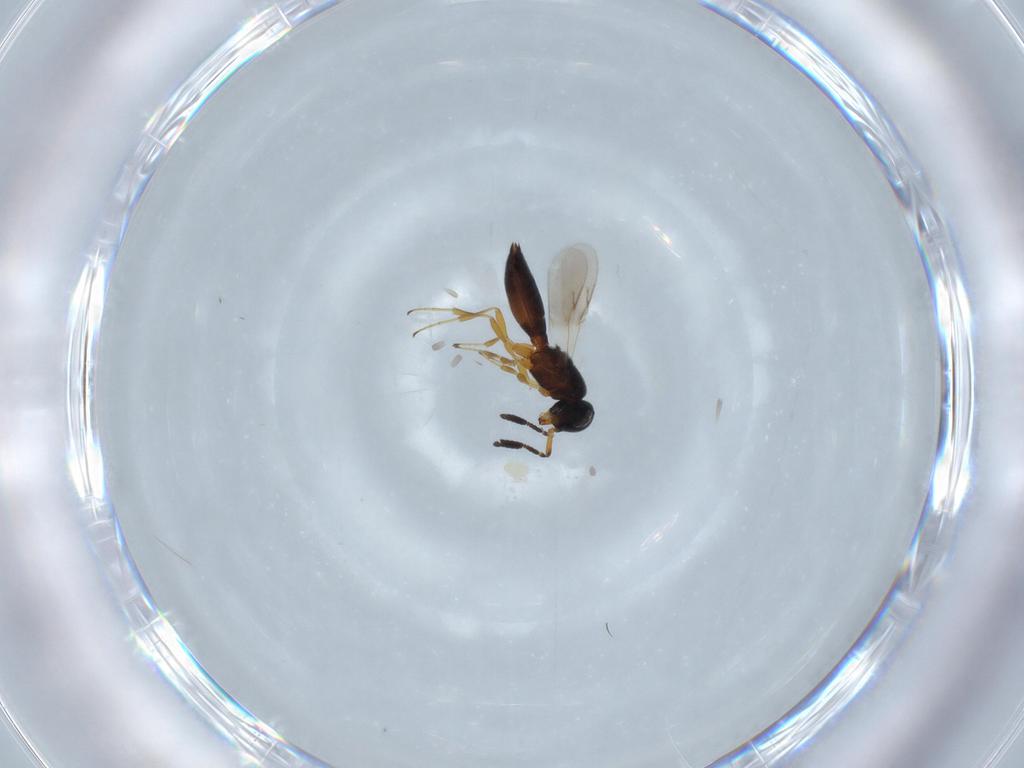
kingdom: Animalia
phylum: Arthropoda
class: Insecta
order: Hymenoptera
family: Scelionidae
